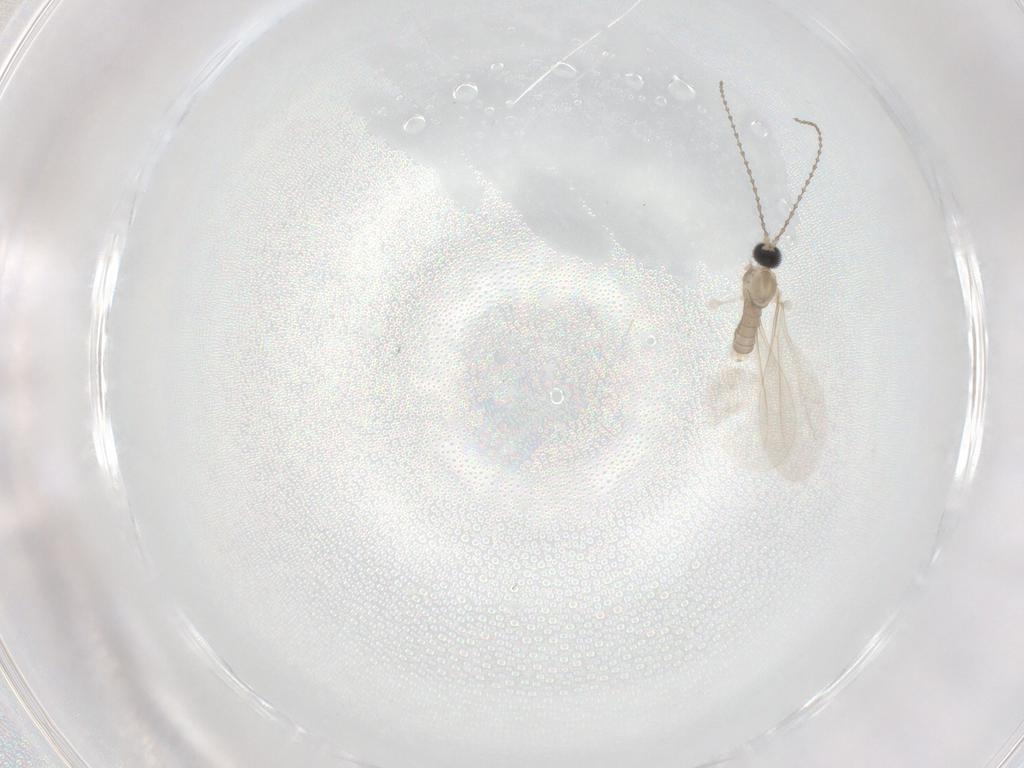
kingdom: Animalia
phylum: Arthropoda
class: Insecta
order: Diptera
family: Cecidomyiidae
